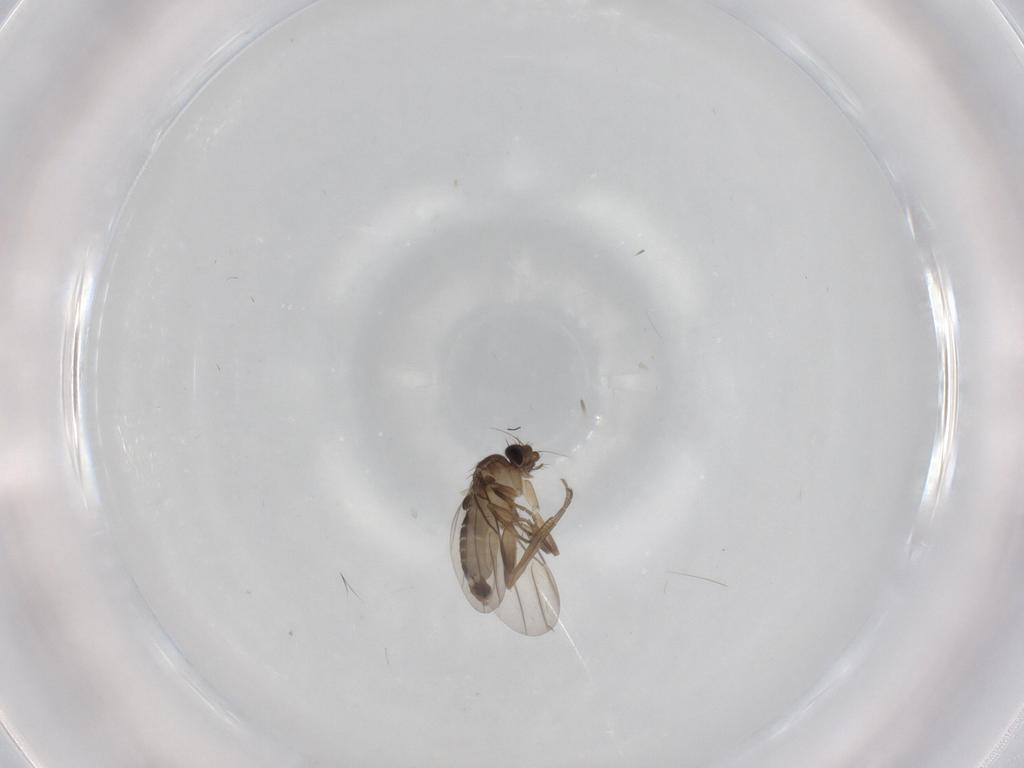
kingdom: Animalia
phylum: Arthropoda
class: Insecta
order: Diptera
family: Phoridae
